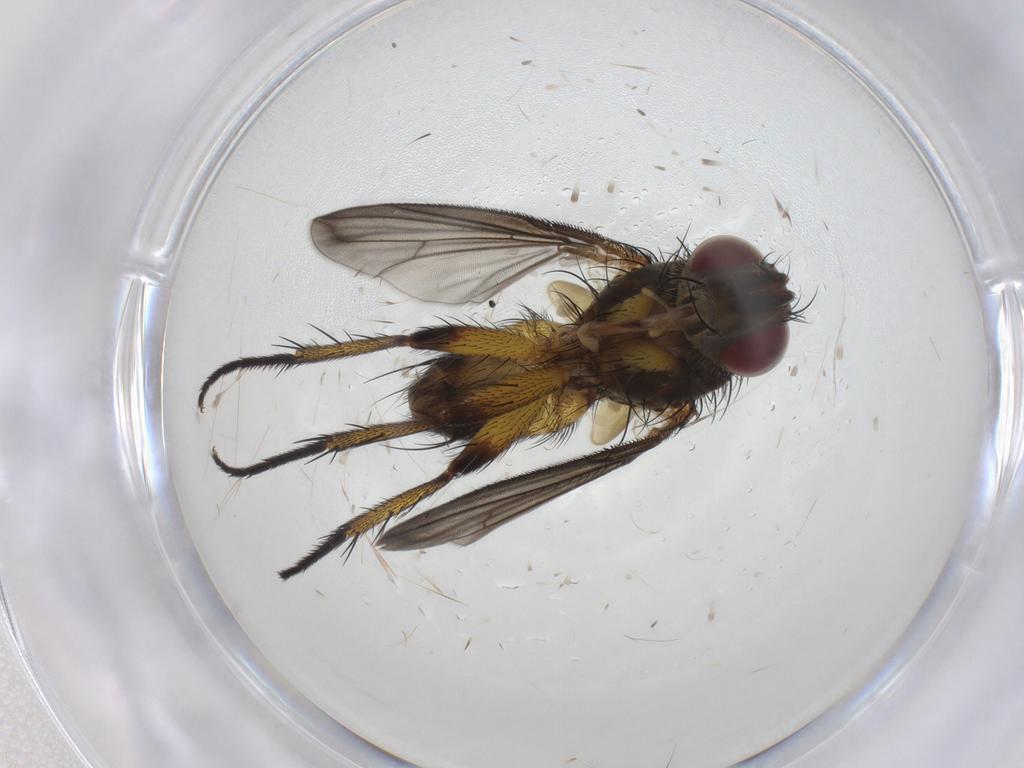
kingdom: Animalia
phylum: Arthropoda
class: Insecta
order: Diptera
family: Tachinidae
